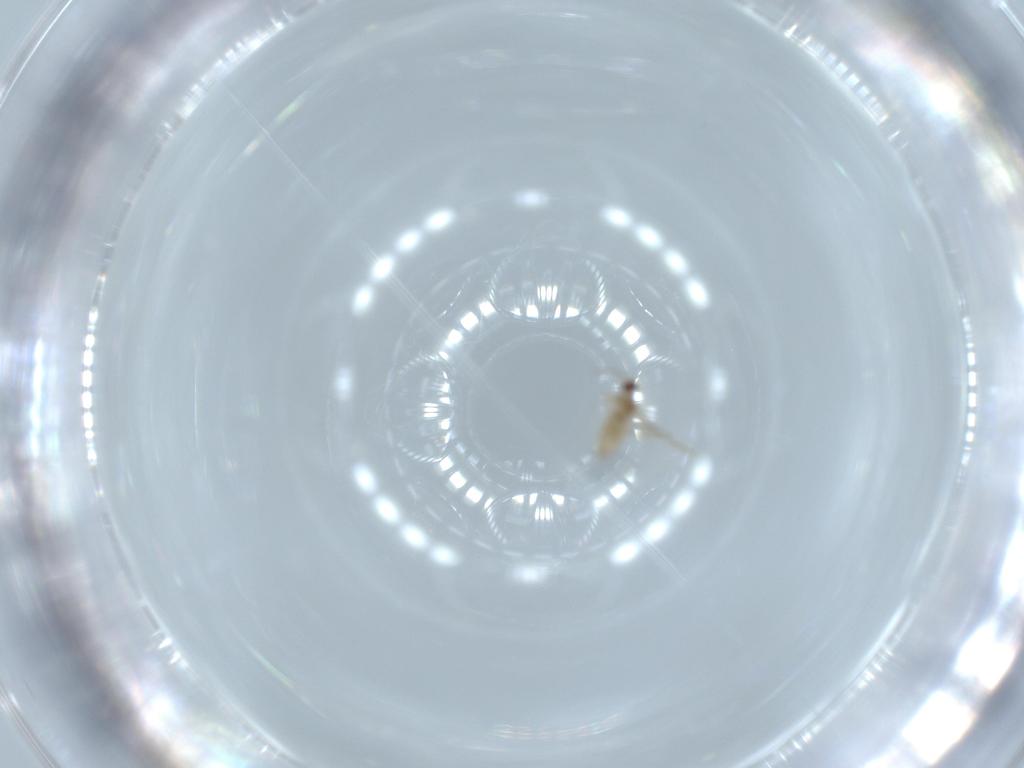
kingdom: Animalia
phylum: Arthropoda
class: Insecta
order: Diptera
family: Cecidomyiidae
